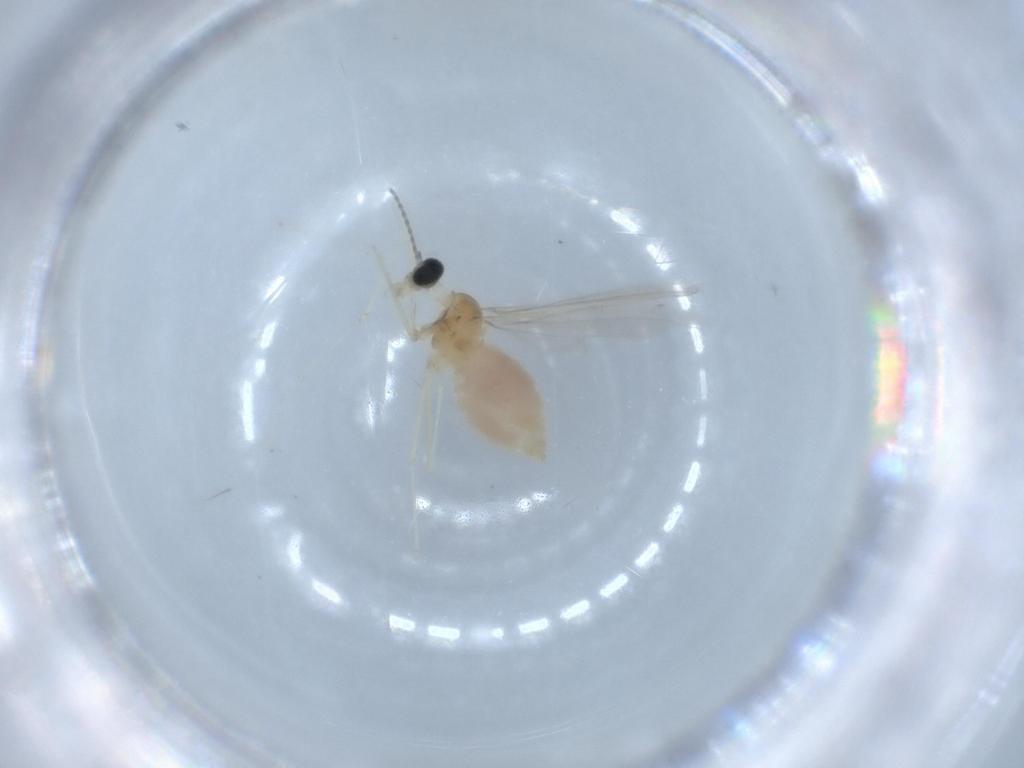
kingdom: Animalia
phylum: Arthropoda
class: Insecta
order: Diptera
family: Cecidomyiidae
